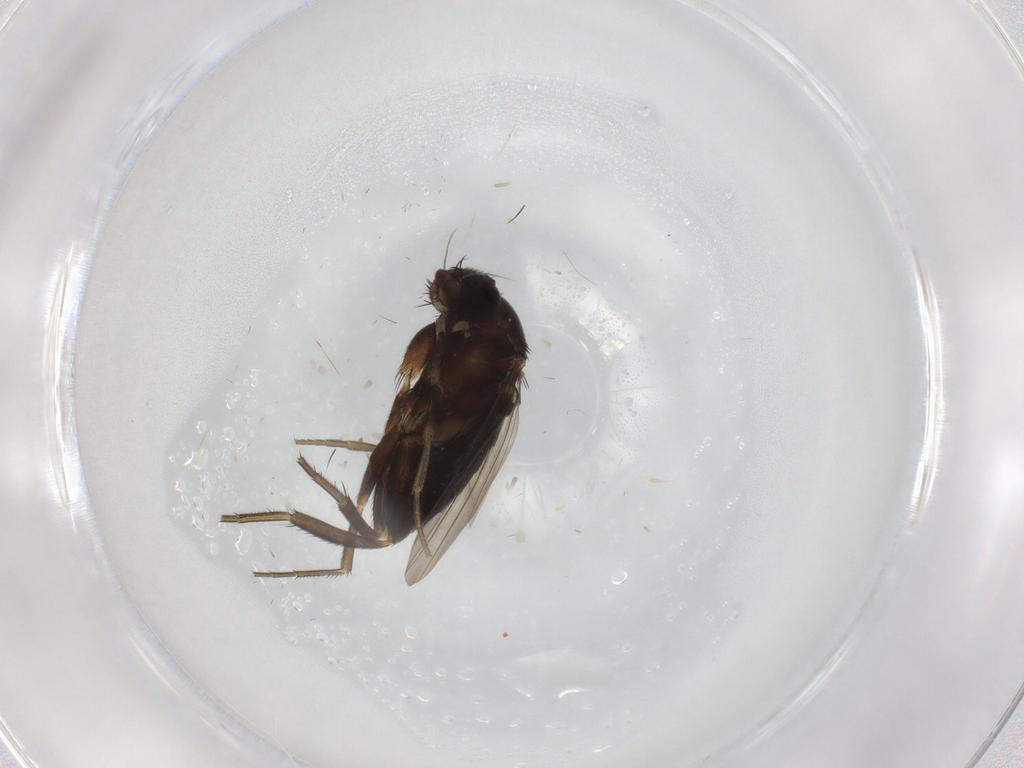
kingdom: Animalia
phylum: Arthropoda
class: Insecta
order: Diptera
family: Phoridae
